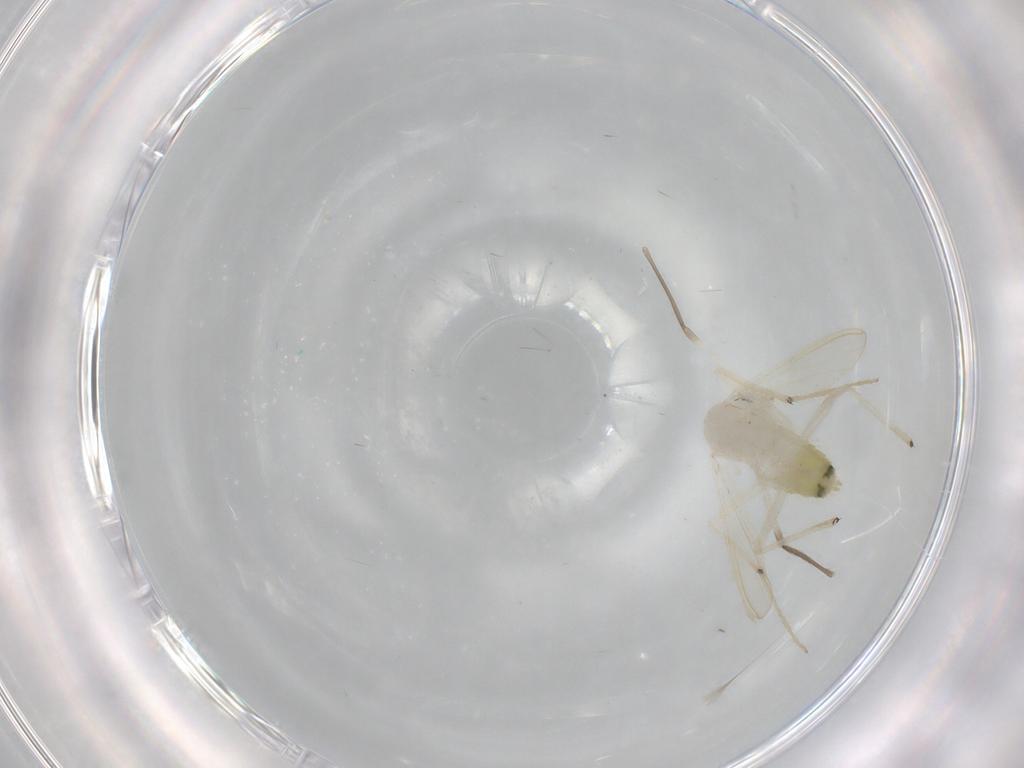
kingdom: Animalia
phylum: Arthropoda
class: Insecta
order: Diptera
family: Chironomidae
